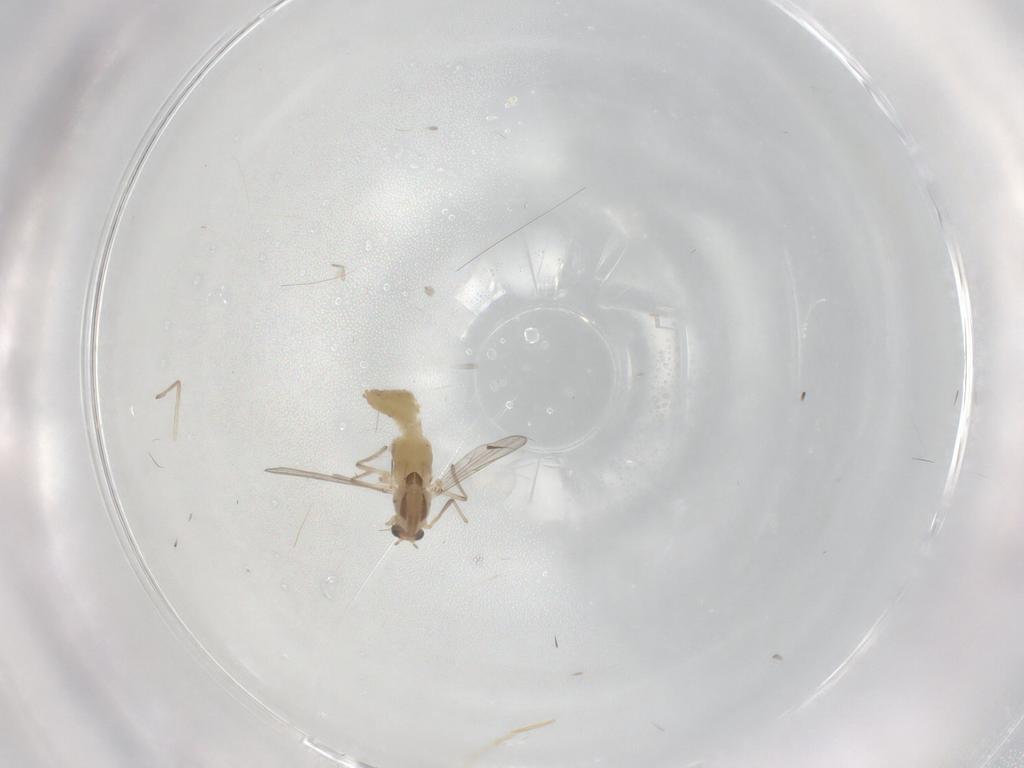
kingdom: Animalia
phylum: Arthropoda
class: Insecta
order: Diptera
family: Chironomidae
